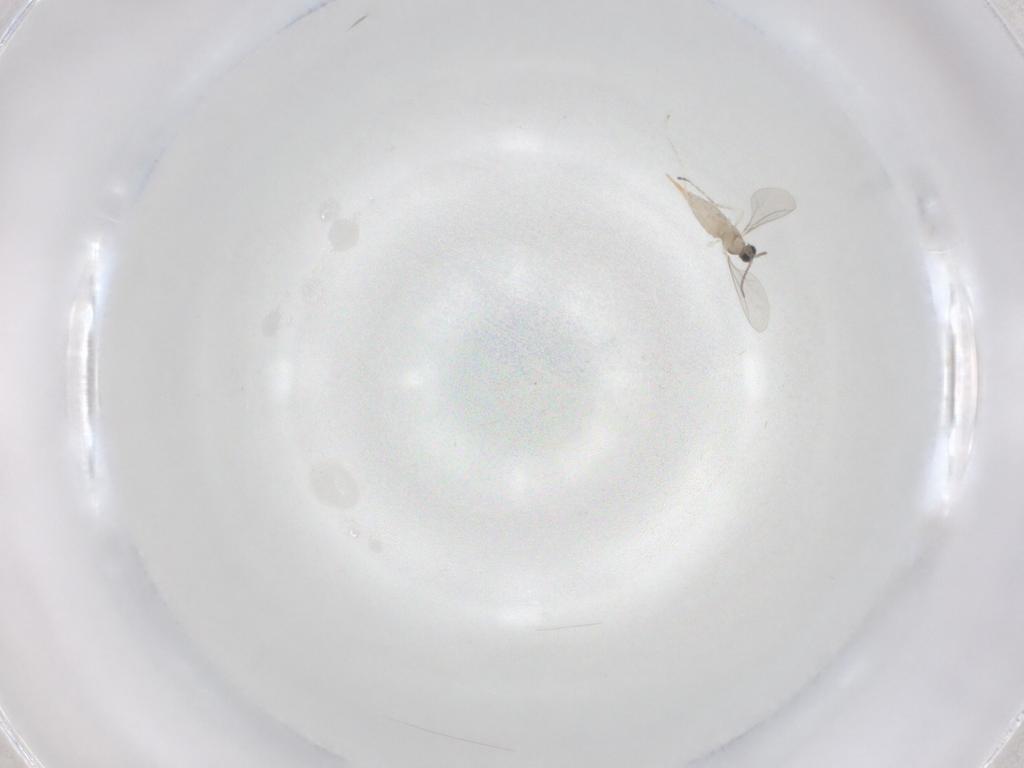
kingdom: Animalia
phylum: Arthropoda
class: Insecta
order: Diptera
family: Cecidomyiidae
